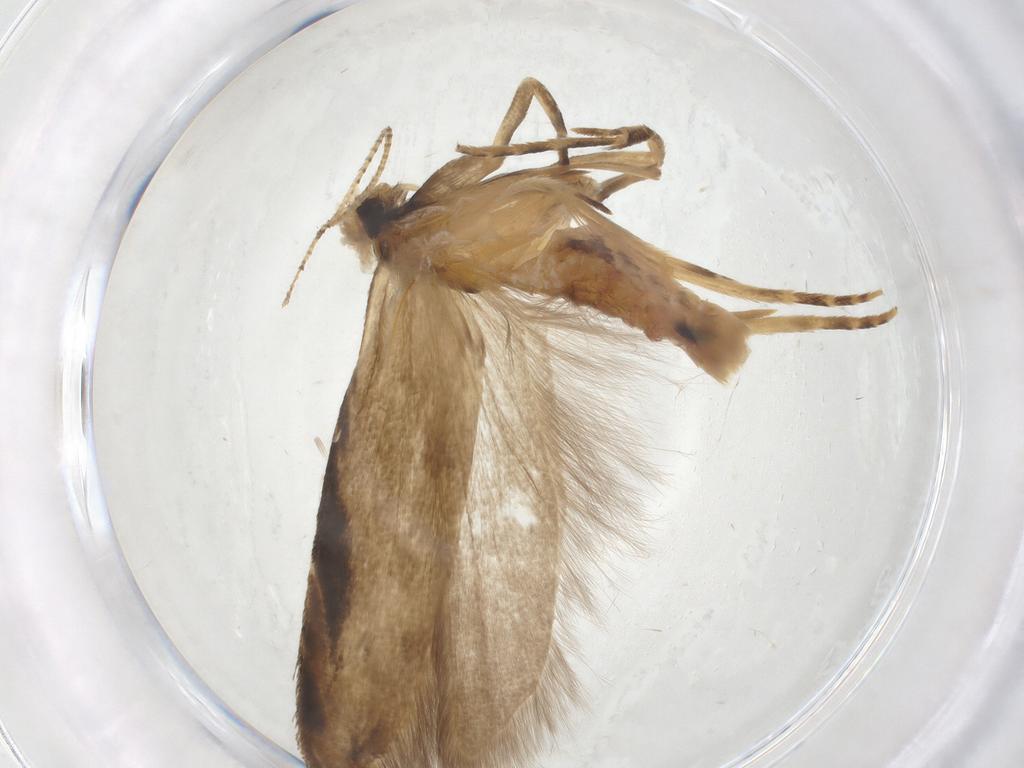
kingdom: Animalia
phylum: Arthropoda
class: Insecta
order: Lepidoptera
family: Gelechiidae
